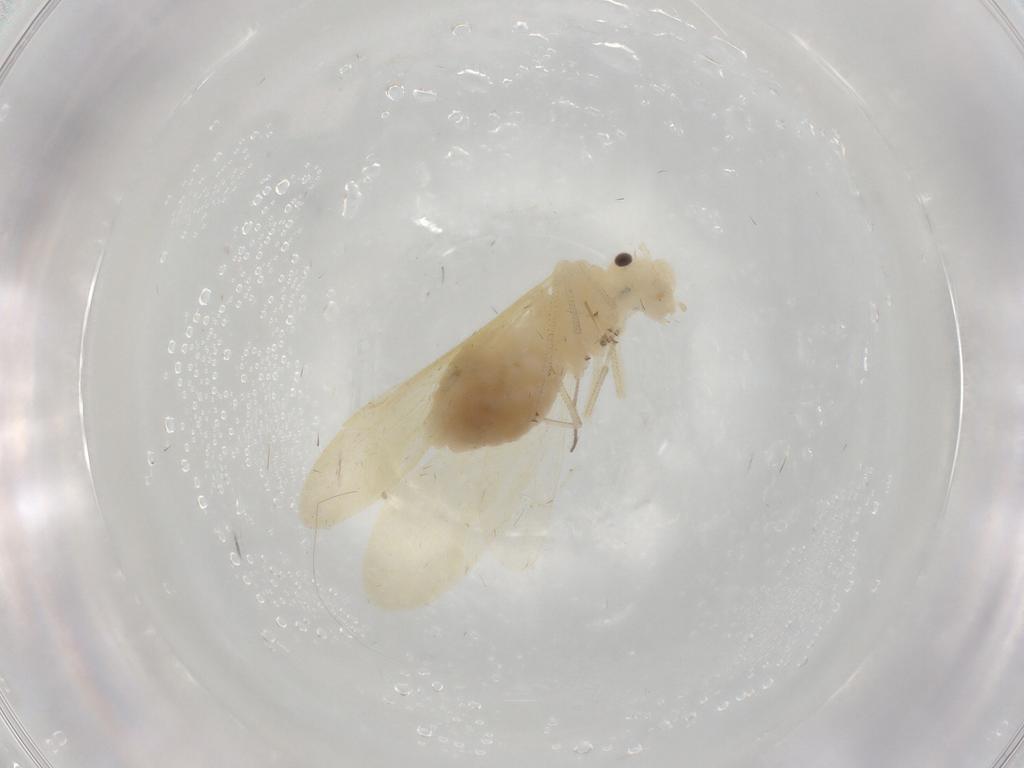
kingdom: Animalia
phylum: Arthropoda
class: Insecta
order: Psocodea
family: Caeciliusidae
